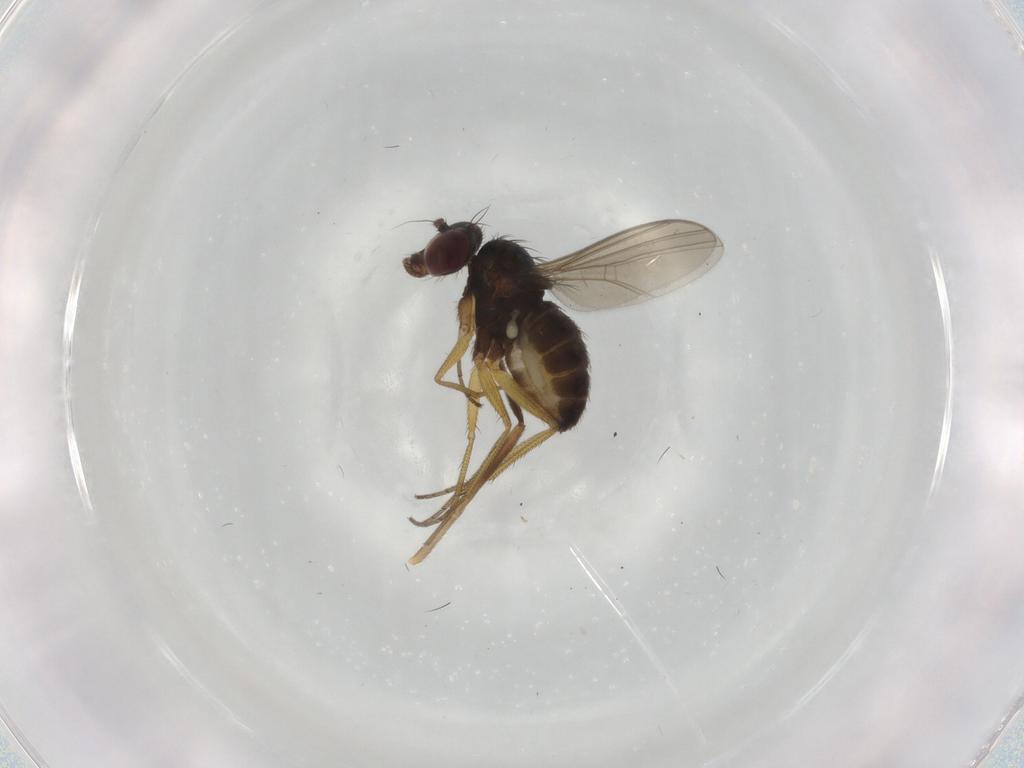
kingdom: Animalia
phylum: Arthropoda
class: Insecta
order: Diptera
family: Dolichopodidae
